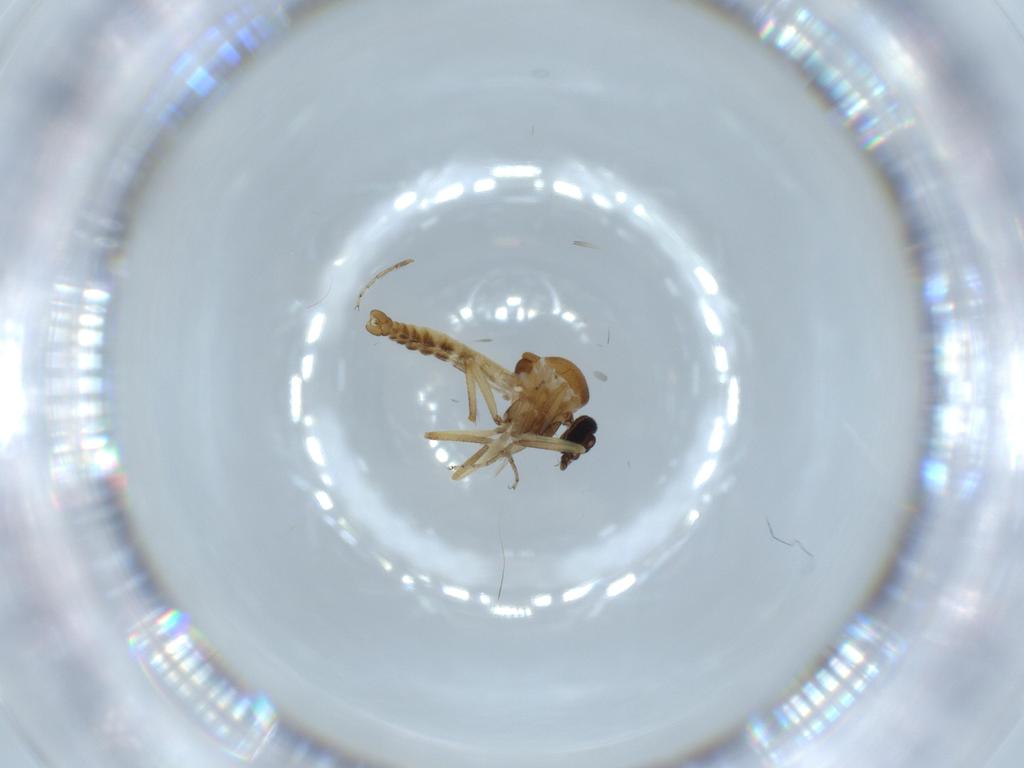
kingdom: Animalia
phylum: Arthropoda
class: Insecta
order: Diptera
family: Ceratopogonidae
